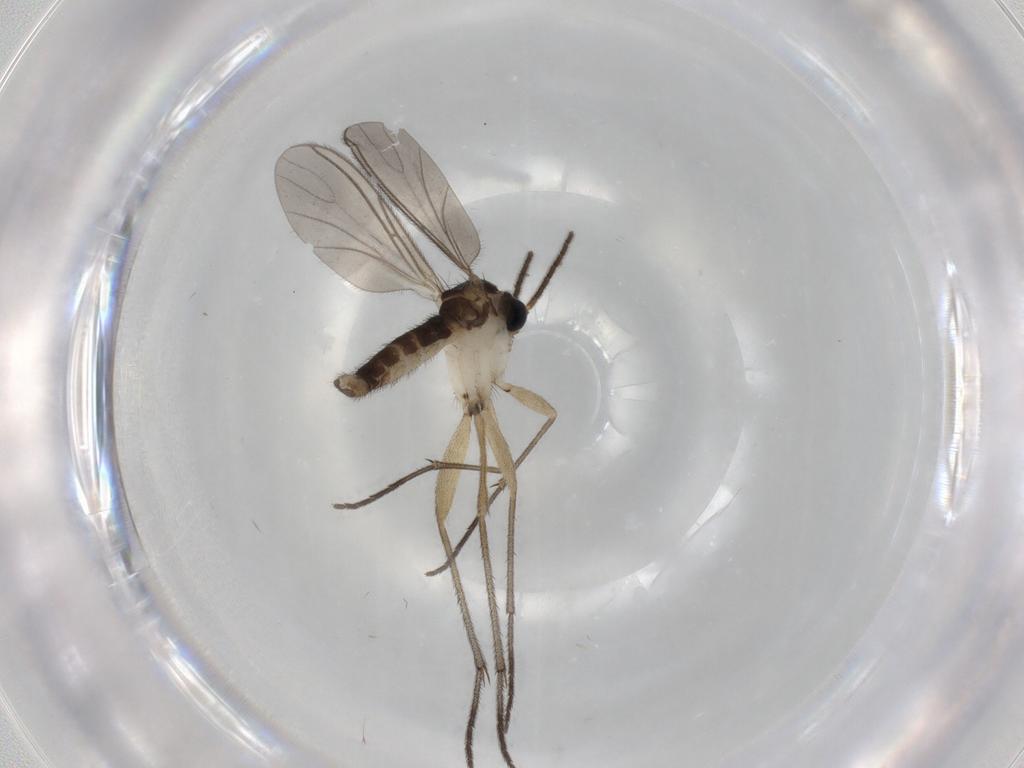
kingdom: Animalia
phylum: Arthropoda
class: Insecta
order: Diptera
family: Sciaridae
